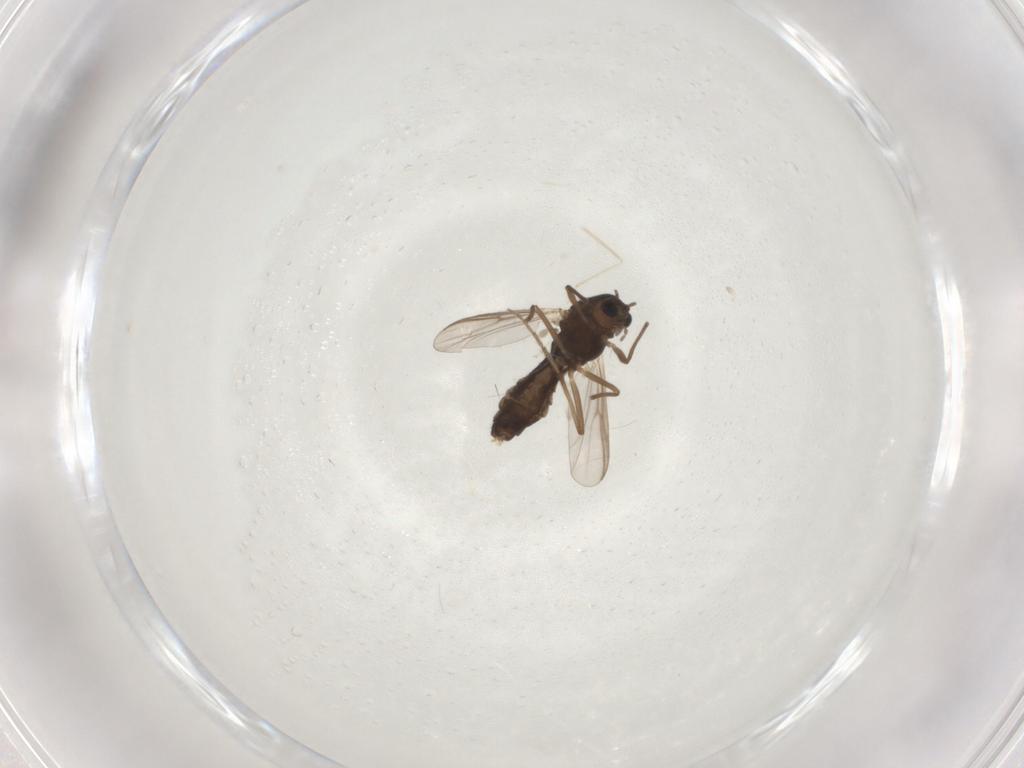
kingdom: Animalia
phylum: Arthropoda
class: Insecta
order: Diptera
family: Chironomidae
